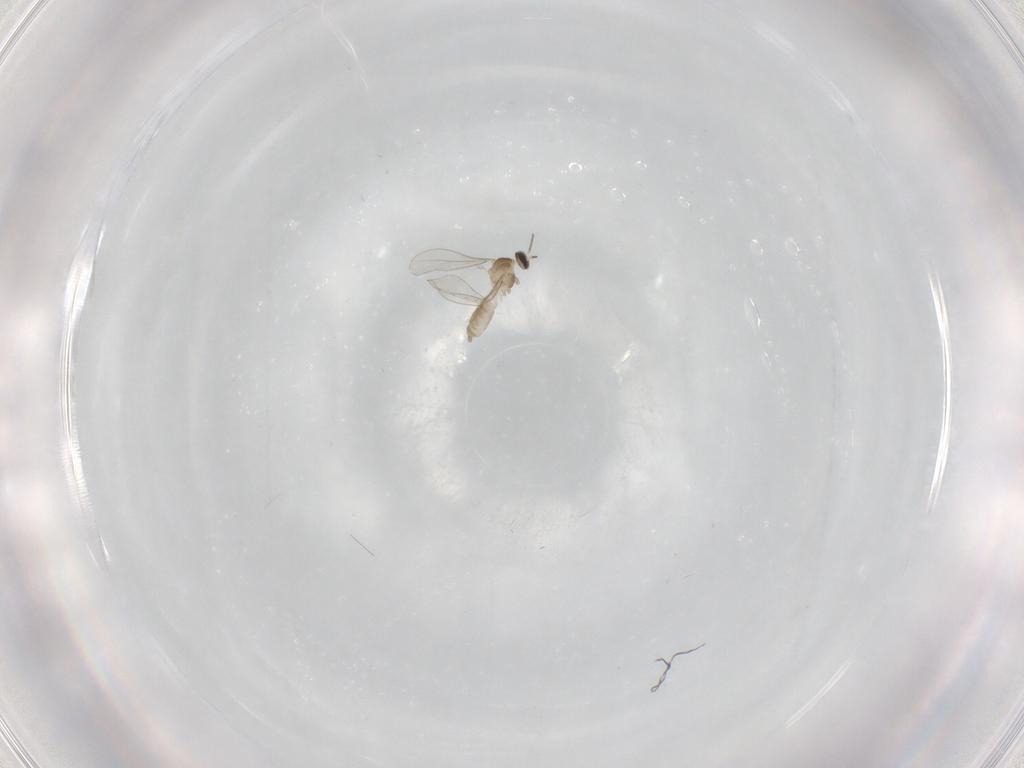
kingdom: Animalia
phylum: Arthropoda
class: Insecta
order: Diptera
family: Cecidomyiidae
